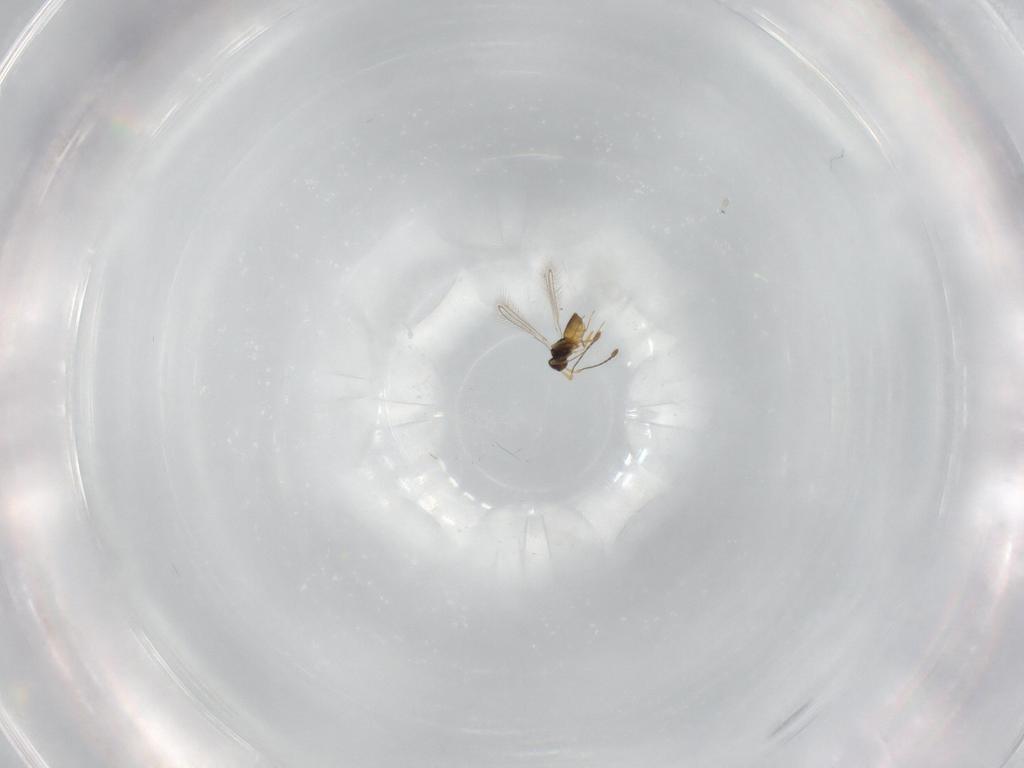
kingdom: Animalia
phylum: Arthropoda
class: Insecta
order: Hymenoptera
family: Mymaridae
